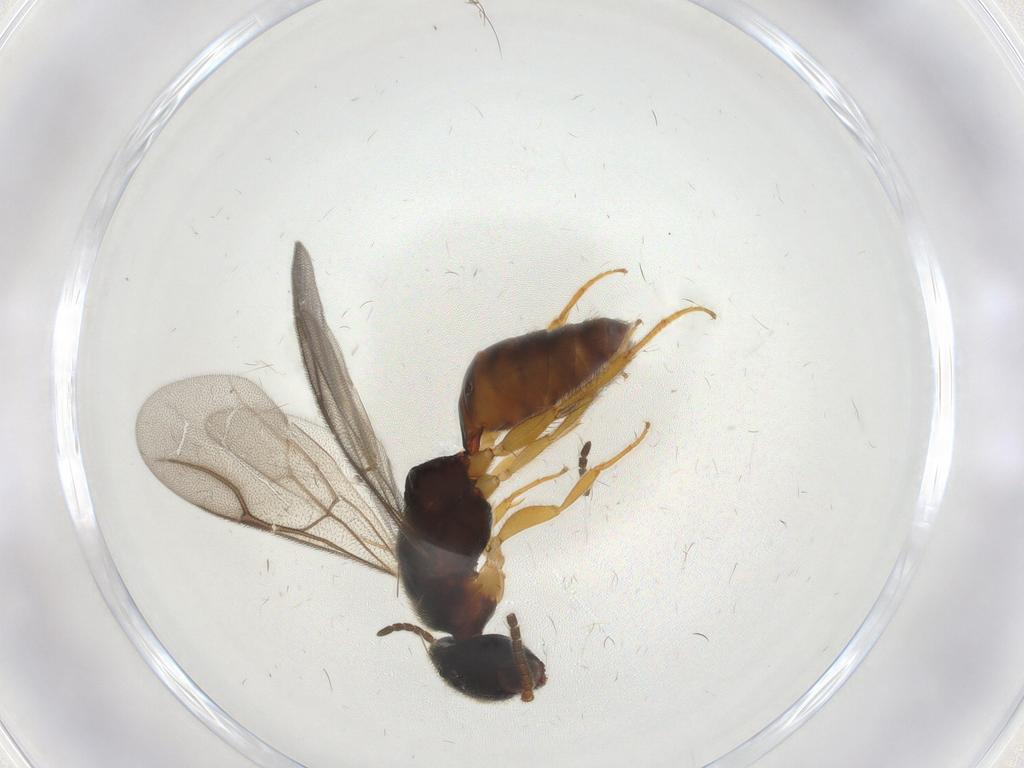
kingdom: Animalia
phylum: Arthropoda
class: Insecta
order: Hymenoptera
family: Bethylidae
